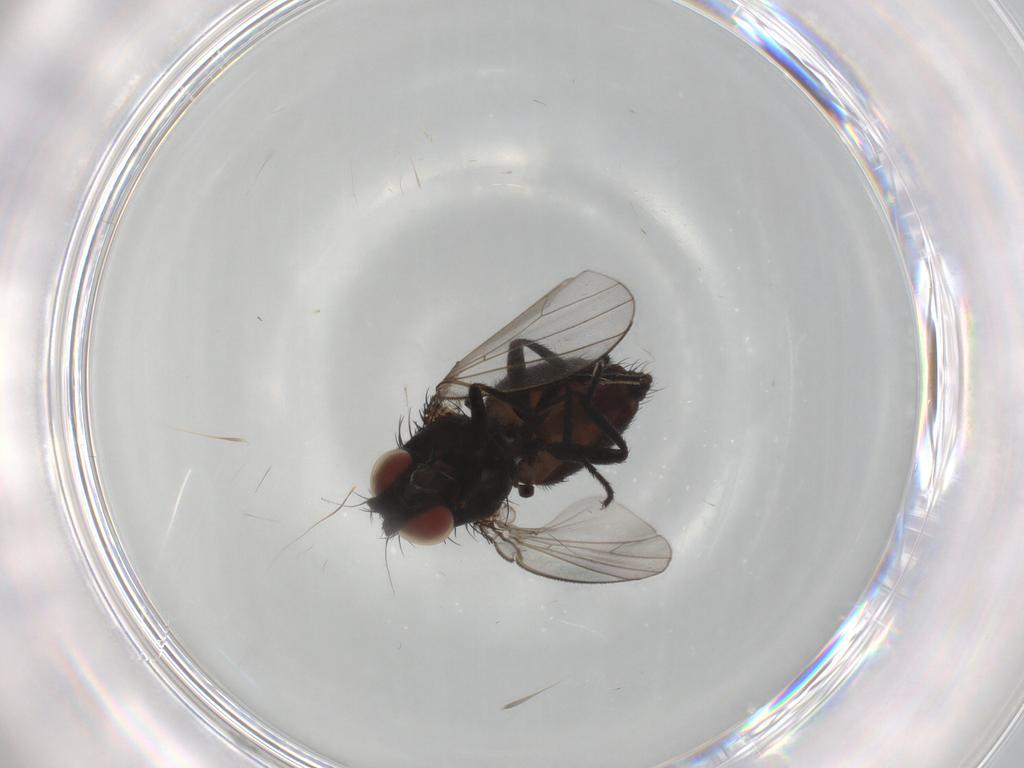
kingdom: Animalia
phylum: Arthropoda
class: Insecta
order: Diptera
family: Milichiidae
